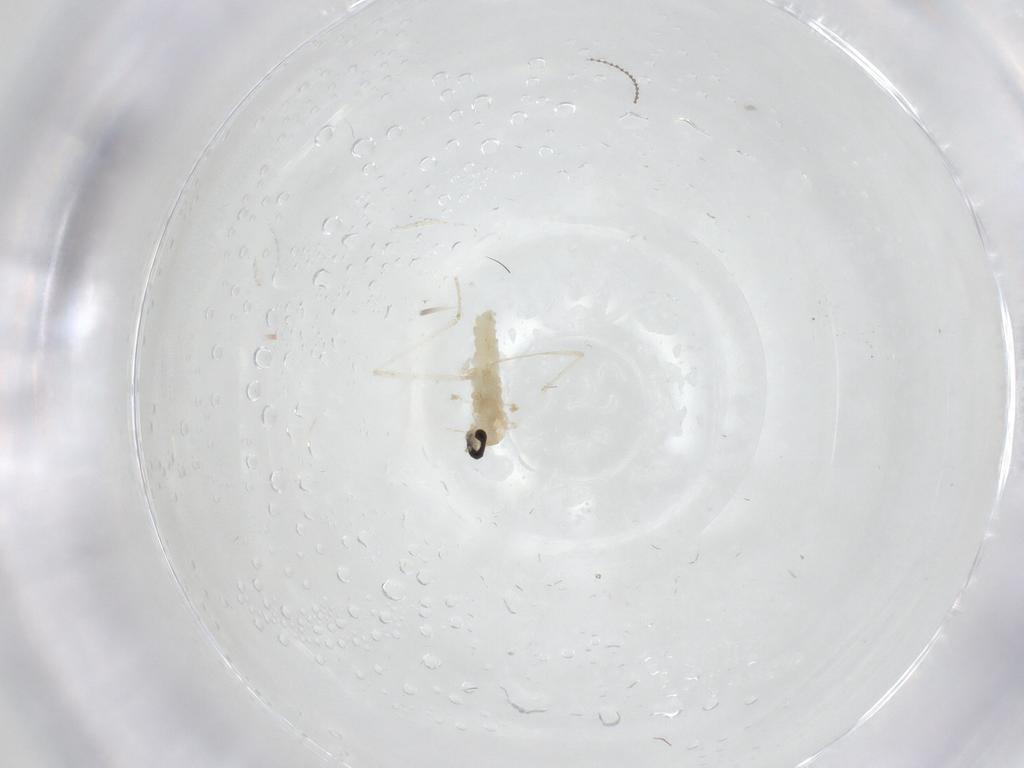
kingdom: Animalia
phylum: Arthropoda
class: Insecta
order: Diptera
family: Cecidomyiidae
